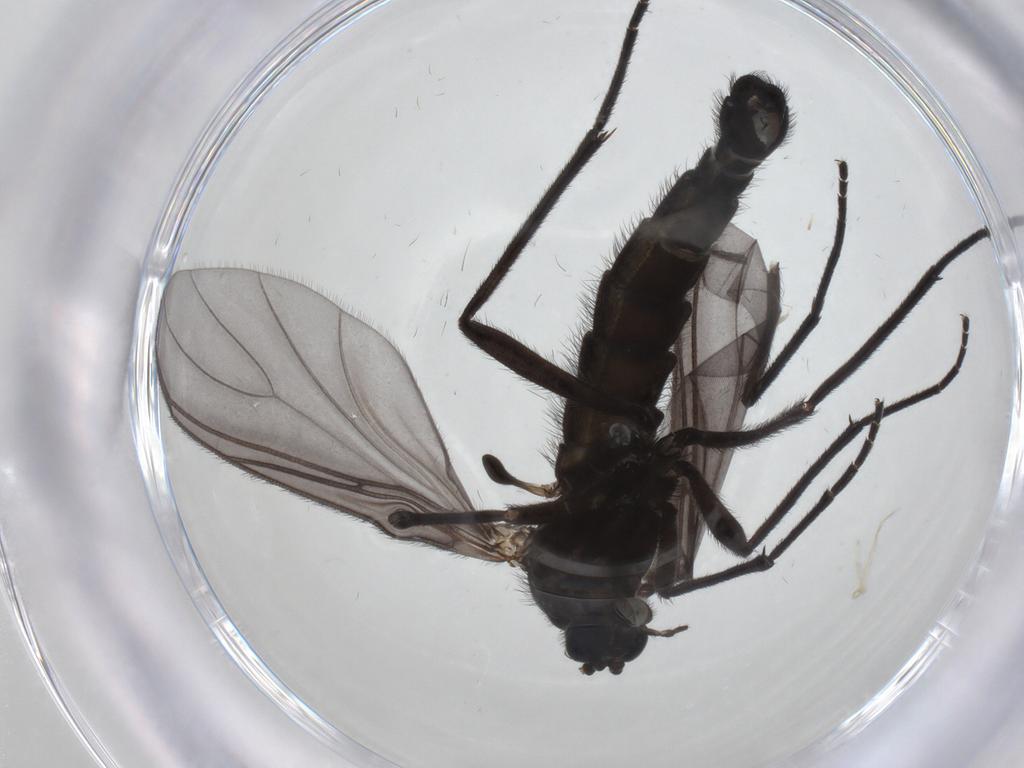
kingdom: Animalia
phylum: Arthropoda
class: Insecta
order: Diptera
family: Sciaridae
